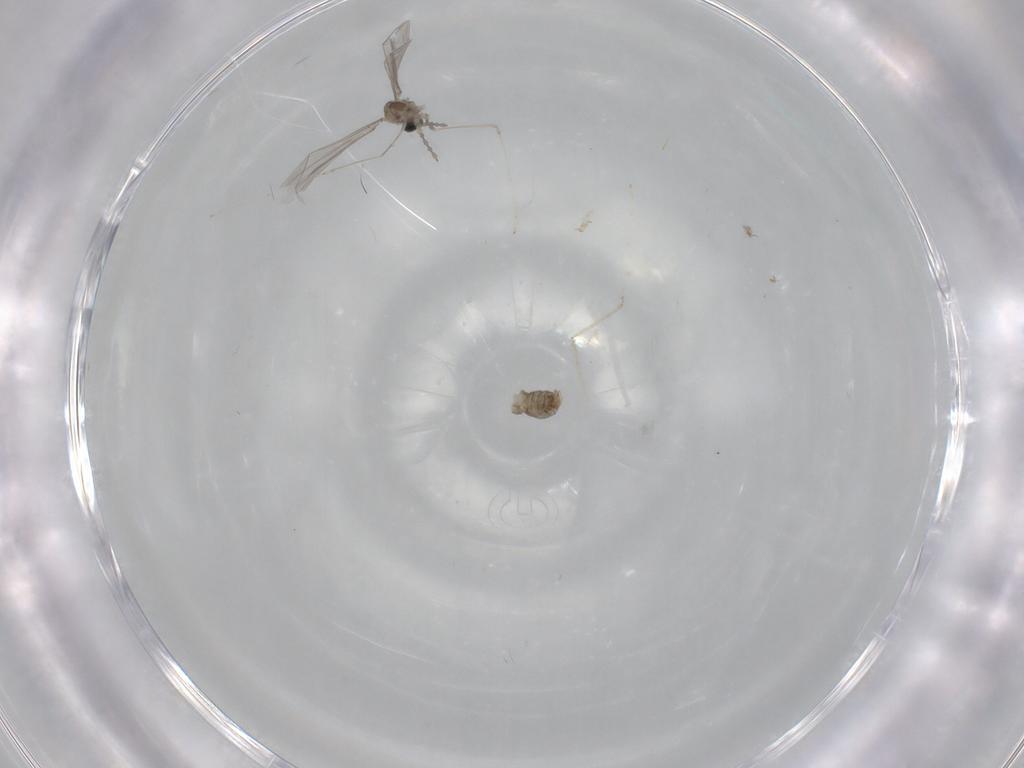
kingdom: Animalia
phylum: Arthropoda
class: Insecta
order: Diptera
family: Cecidomyiidae
